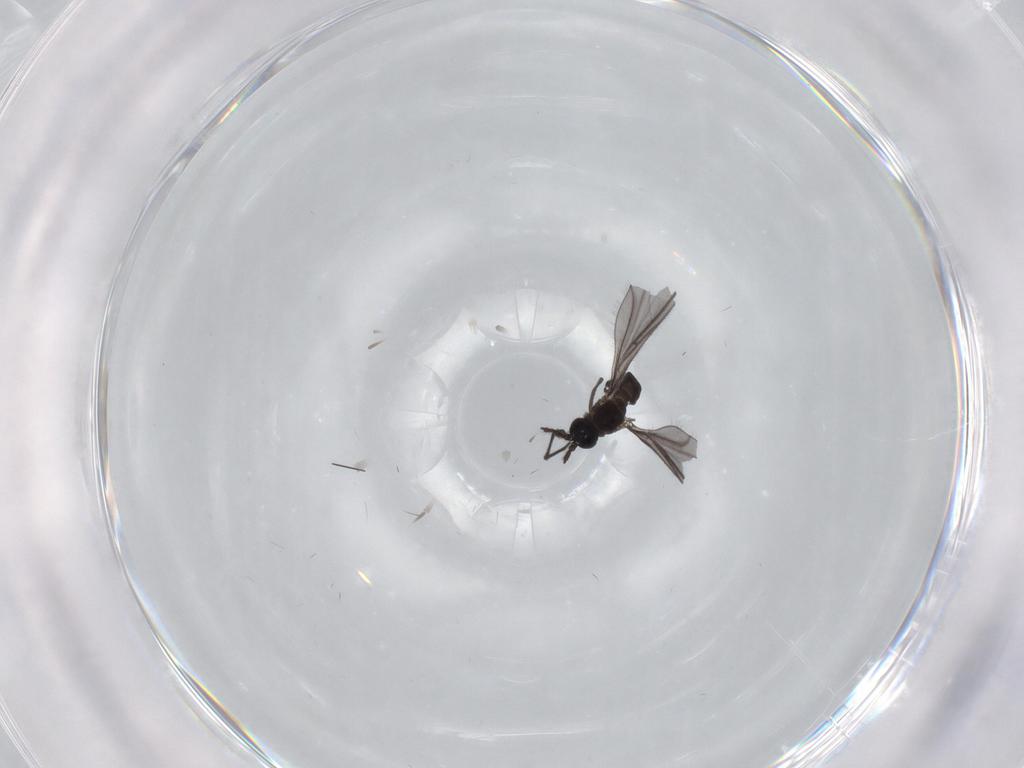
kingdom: Animalia
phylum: Arthropoda
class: Insecta
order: Diptera
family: Sciaridae
